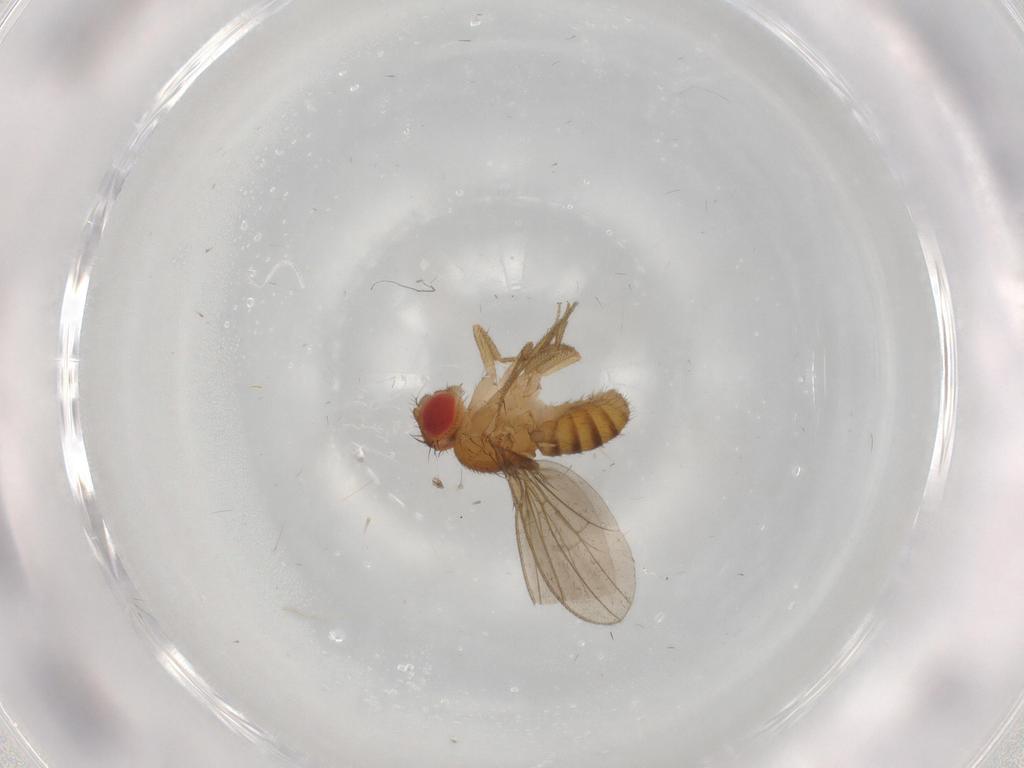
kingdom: Animalia
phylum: Arthropoda
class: Insecta
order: Diptera
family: Drosophilidae
